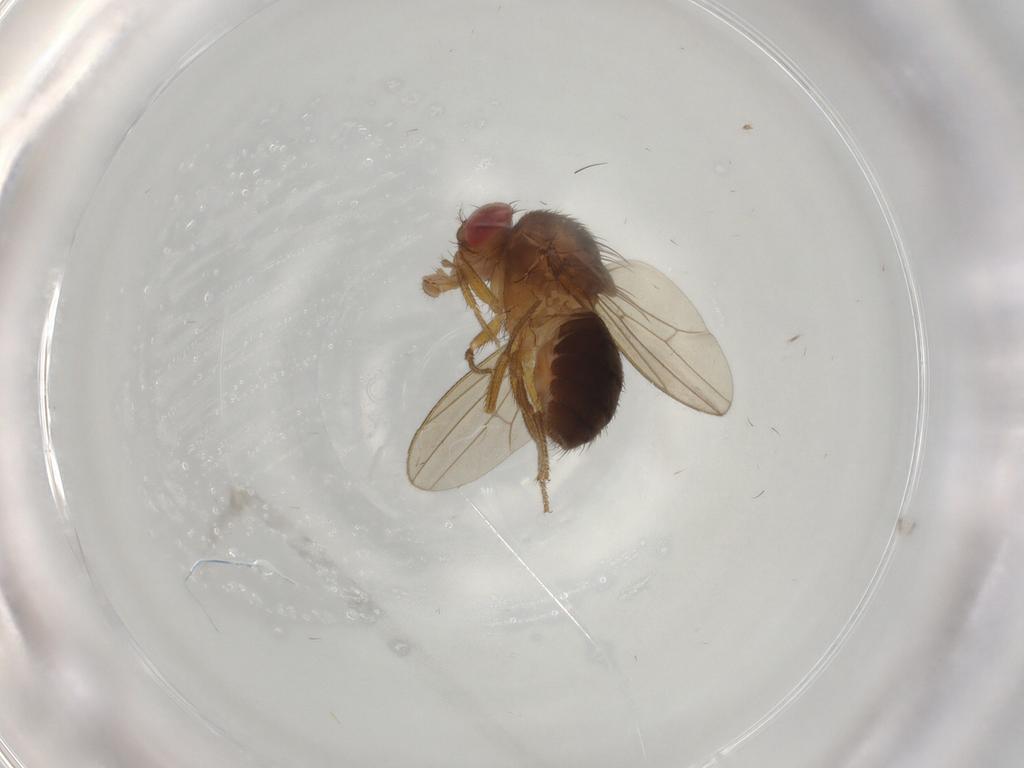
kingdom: Animalia
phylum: Arthropoda
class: Insecta
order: Diptera
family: Drosophilidae
